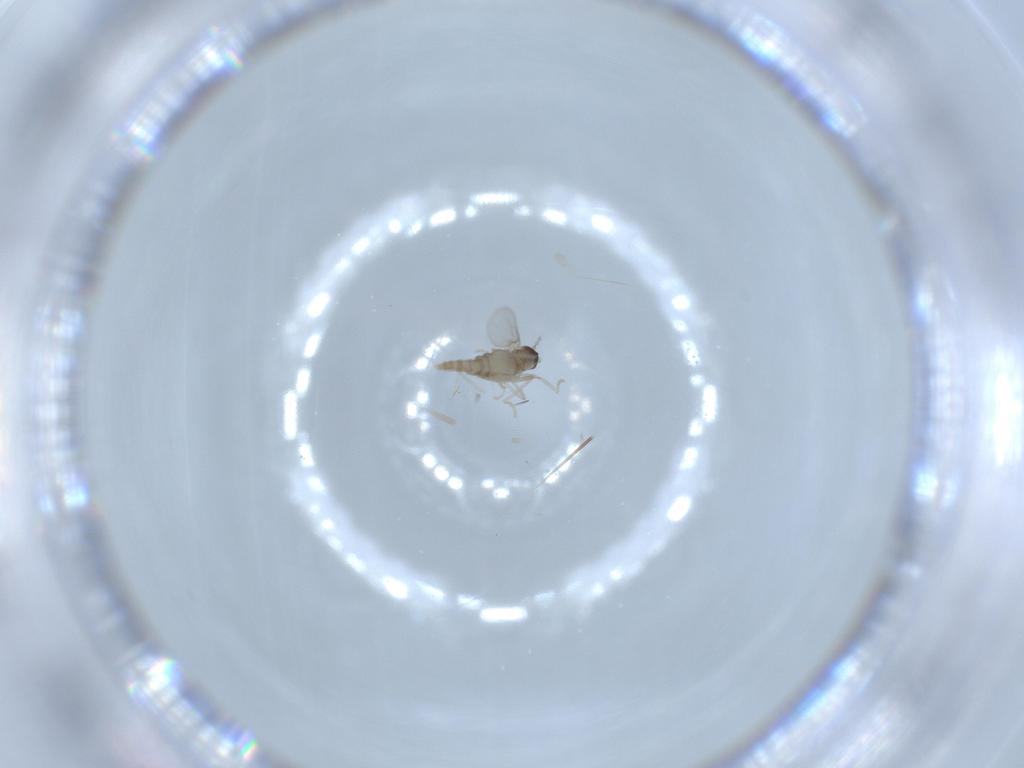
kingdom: Animalia
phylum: Arthropoda
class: Insecta
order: Diptera
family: Cecidomyiidae
